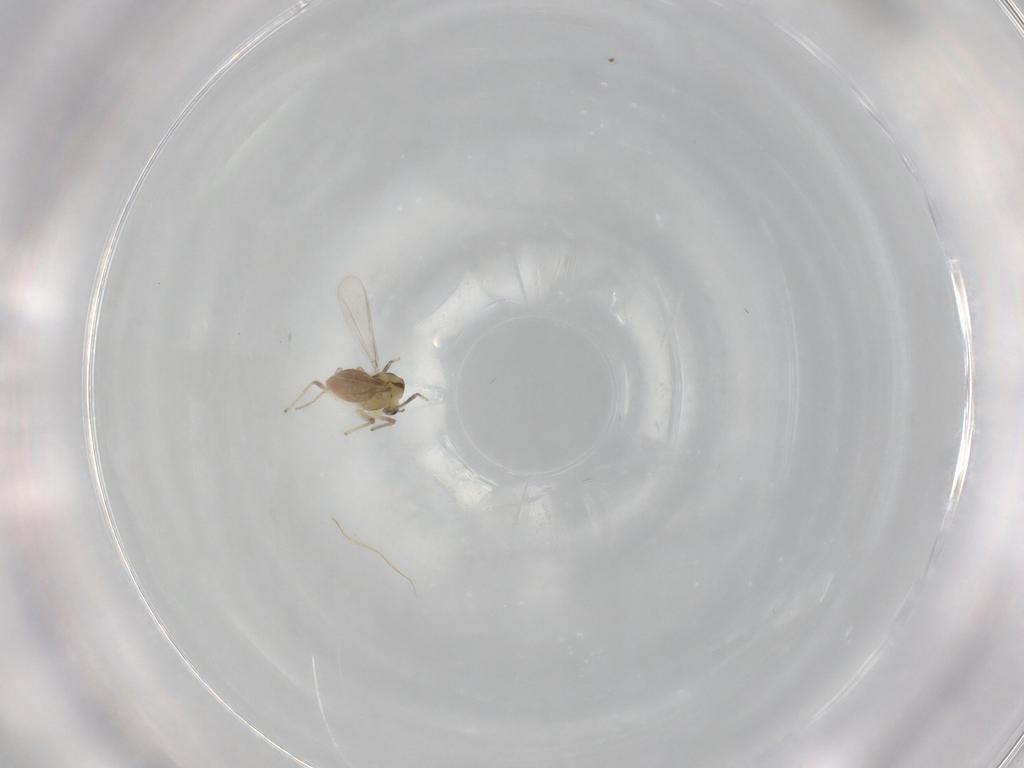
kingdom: Animalia
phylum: Arthropoda
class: Insecta
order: Diptera
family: Chironomidae
